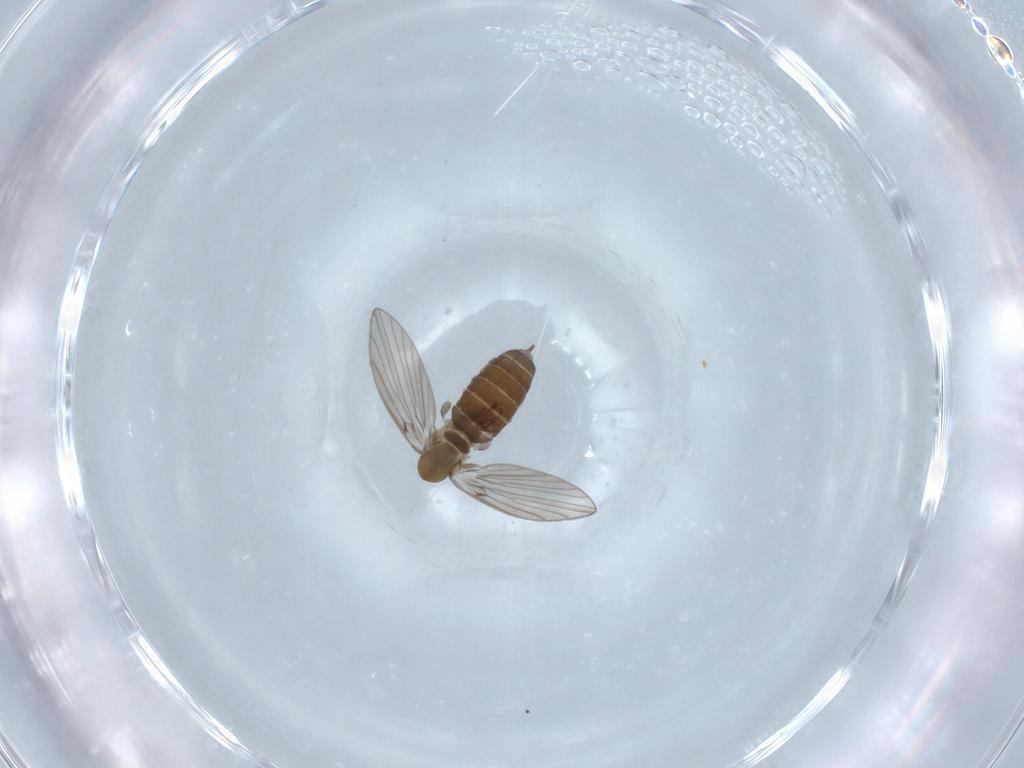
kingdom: Animalia
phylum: Arthropoda
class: Insecta
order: Diptera
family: Psychodidae
